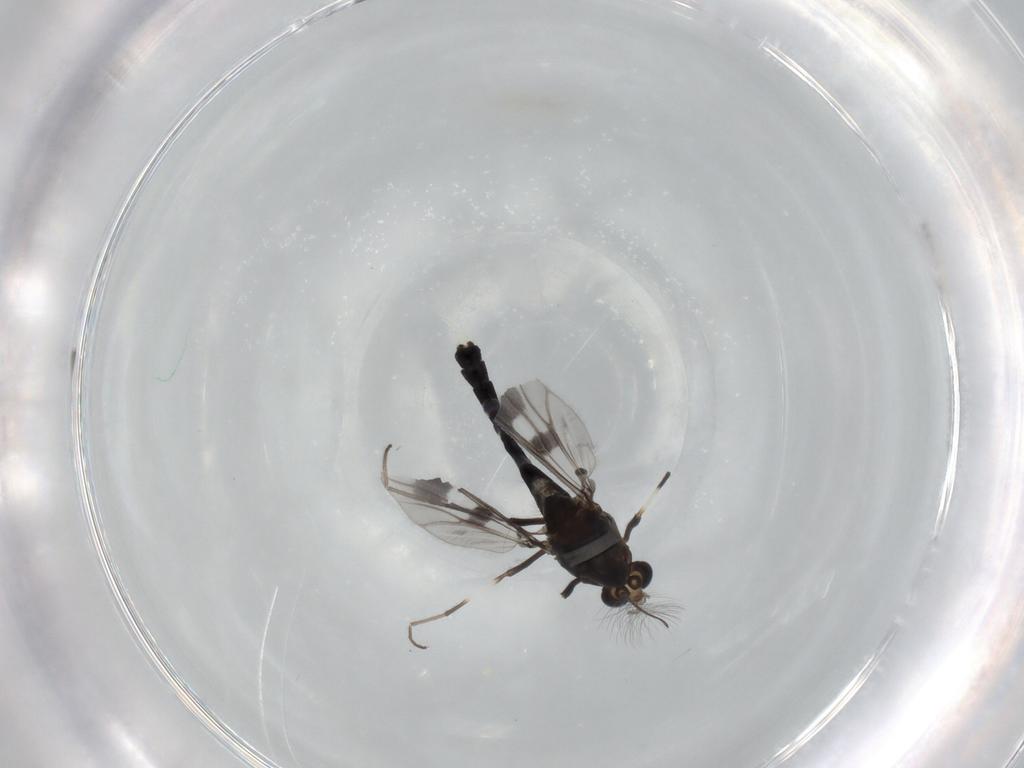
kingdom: Animalia
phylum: Arthropoda
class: Insecta
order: Diptera
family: Chironomidae
